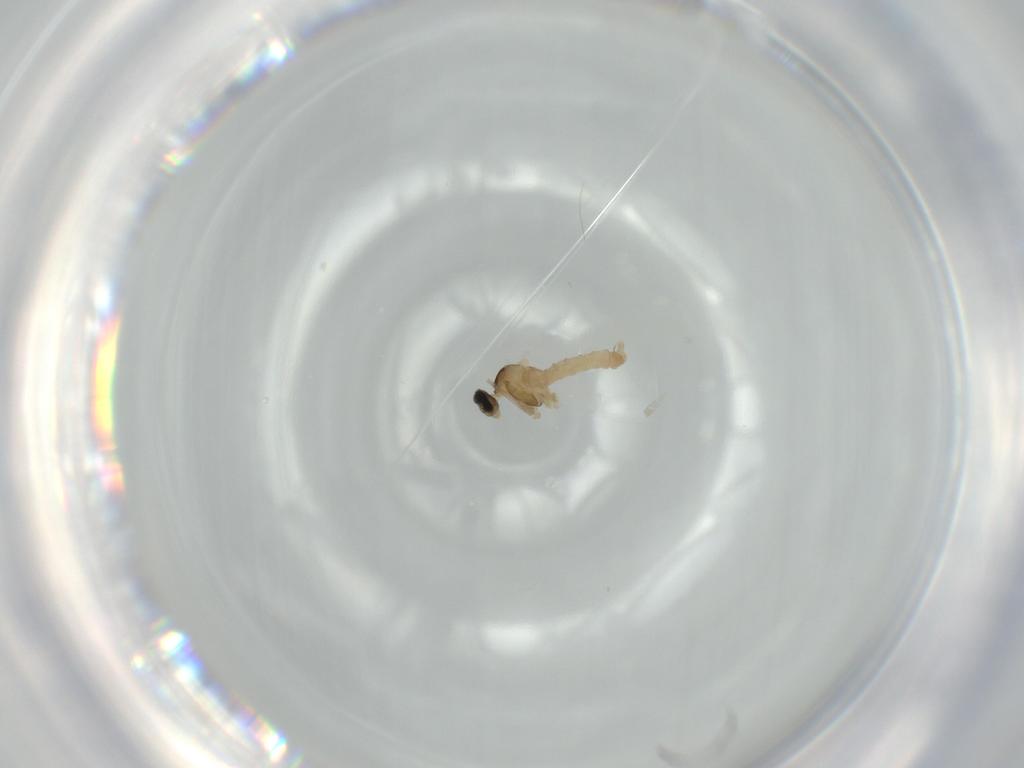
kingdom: Animalia
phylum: Arthropoda
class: Insecta
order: Diptera
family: Cecidomyiidae
